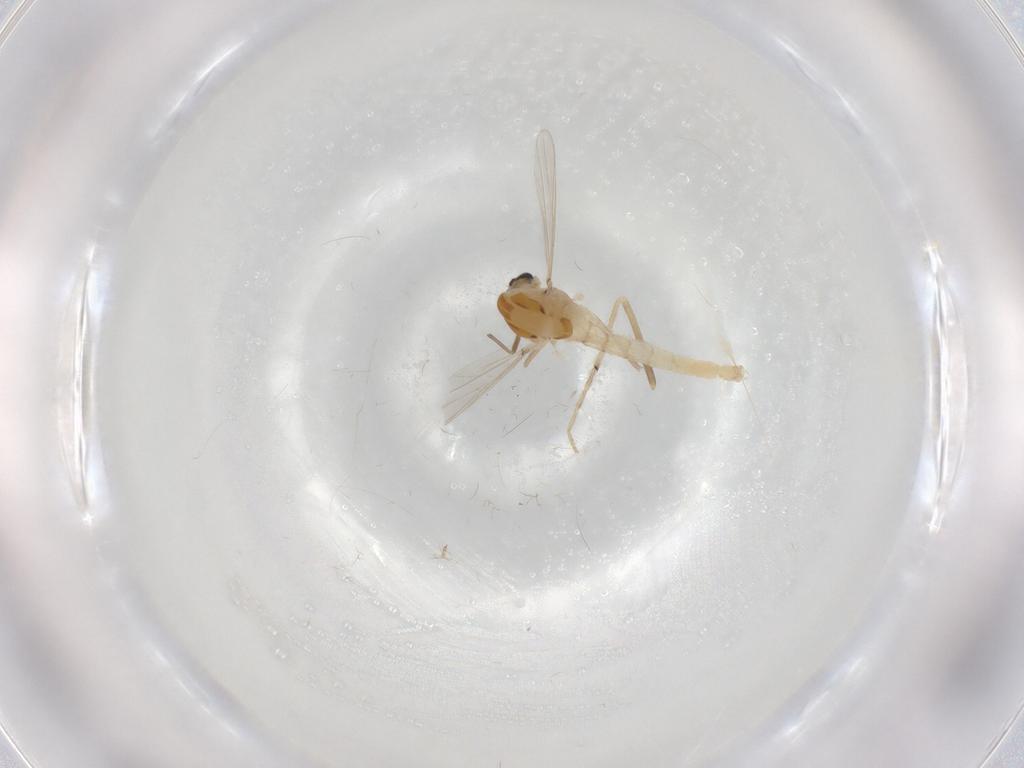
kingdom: Animalia
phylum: Arthropoda
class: Insecta
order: Diptera
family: Chironomidae
